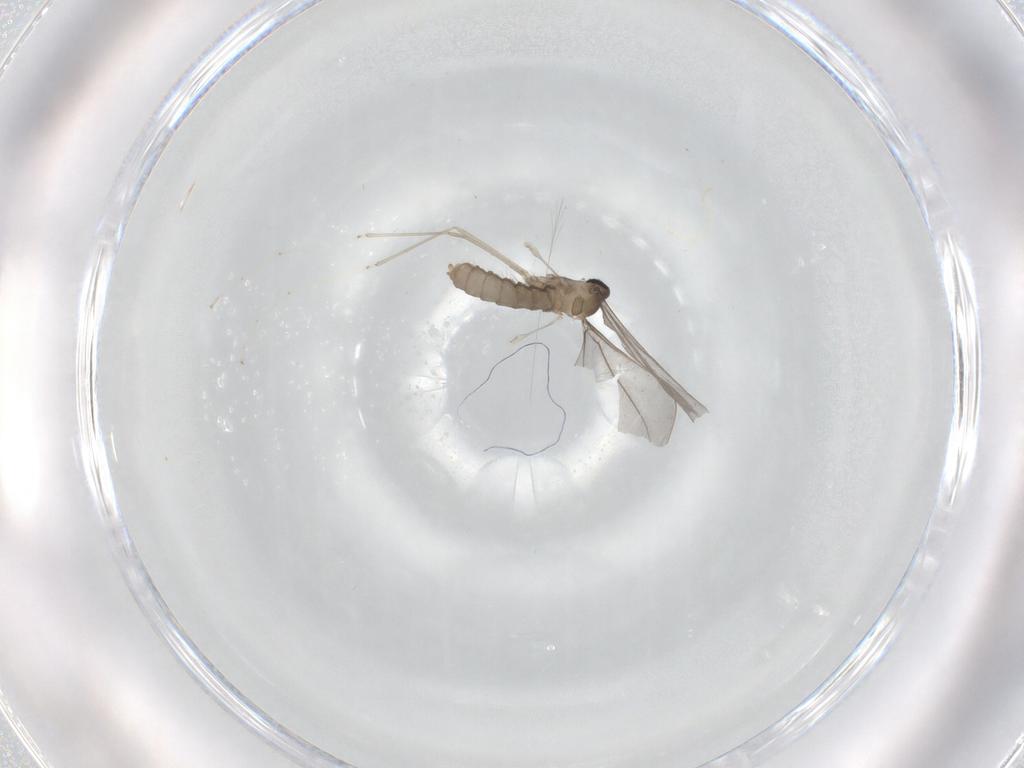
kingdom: Animalia
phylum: Arthropoda
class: Insecta
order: Diptera
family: Cecidomyiidae
